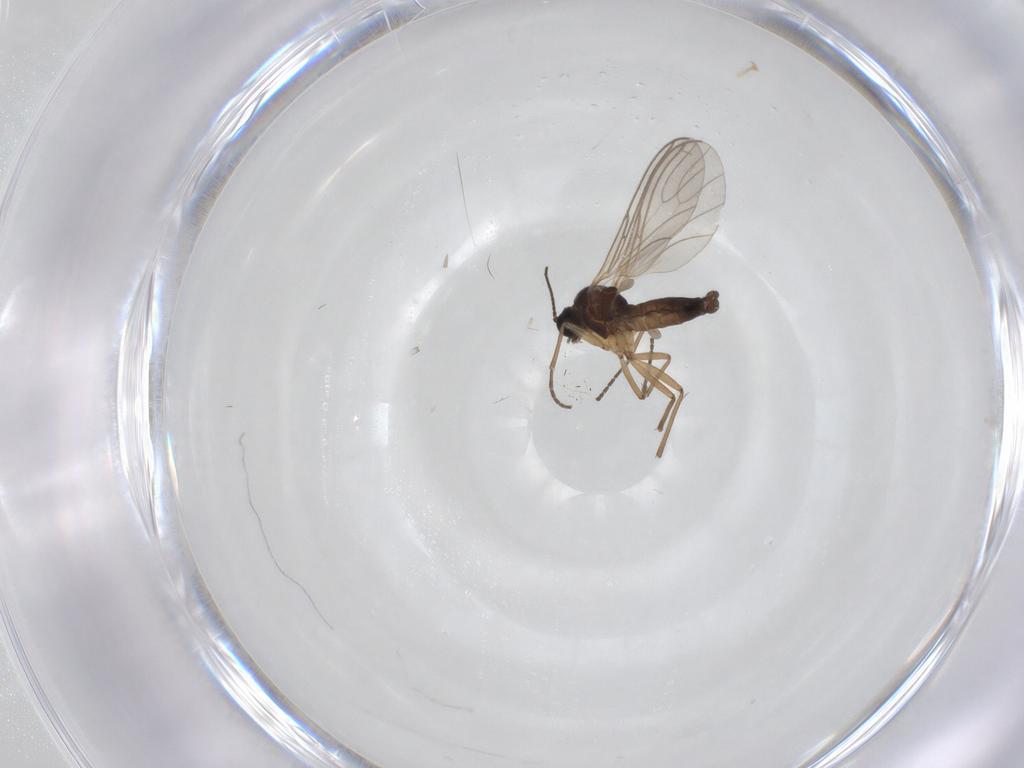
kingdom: Animalia
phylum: Arthropoda
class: Insecta
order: Diptera
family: Sciaridae
